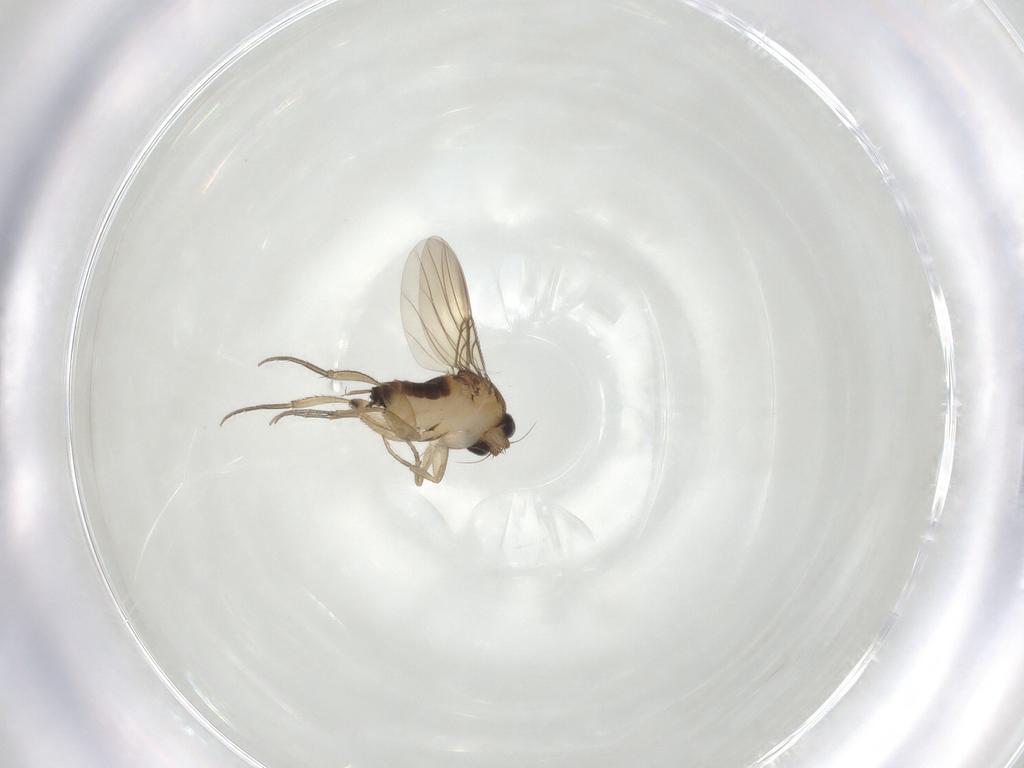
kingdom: Animalia
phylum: Arthropoda
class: Insecta
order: Diptera
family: Phoridae
